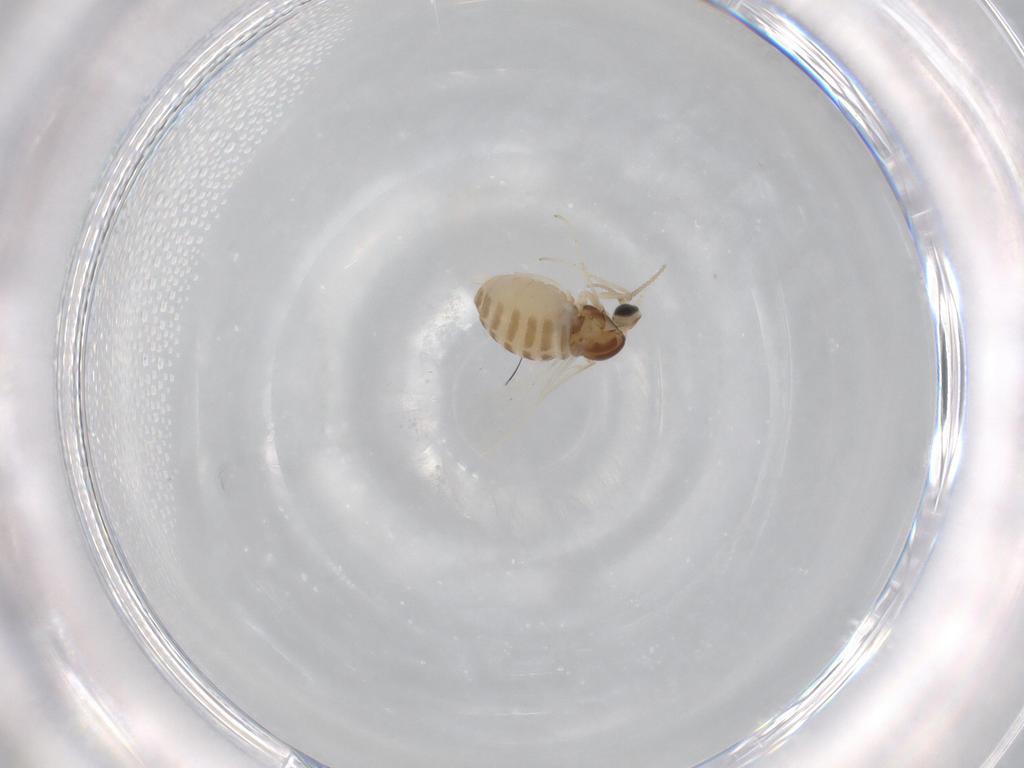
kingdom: Animalia
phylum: Arthropoda
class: Insecta
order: Diptera
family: Cecidomyiidae
